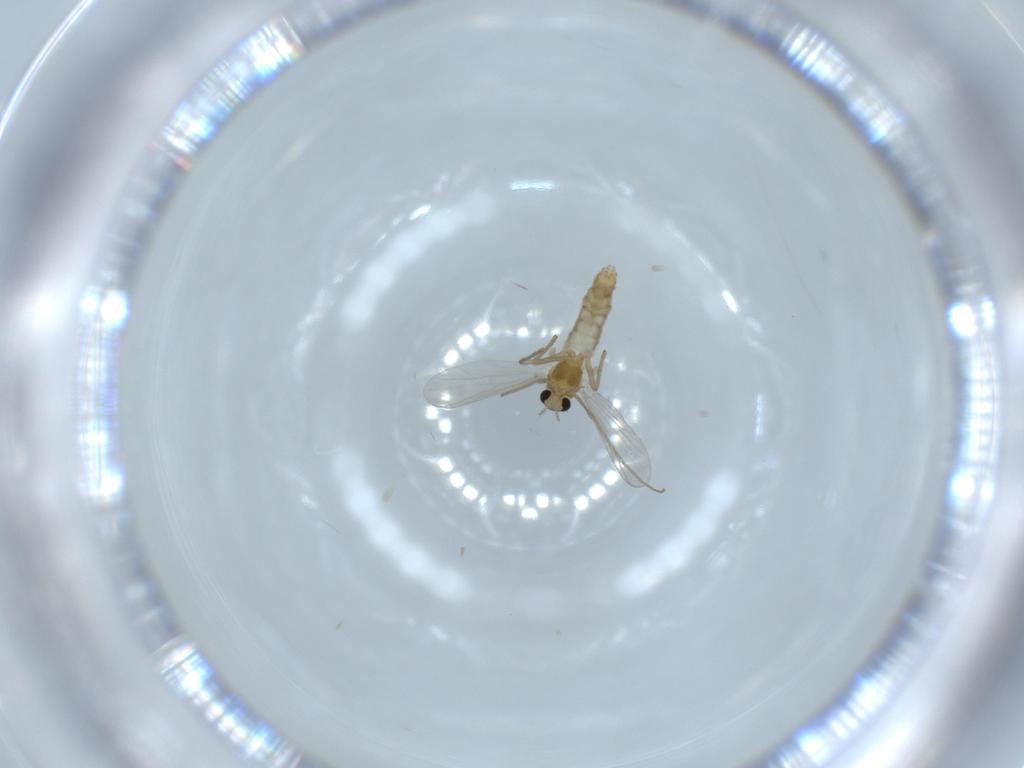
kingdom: Animalia
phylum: Arthropoda
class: Insecta
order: Diptera
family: Chironomidae
